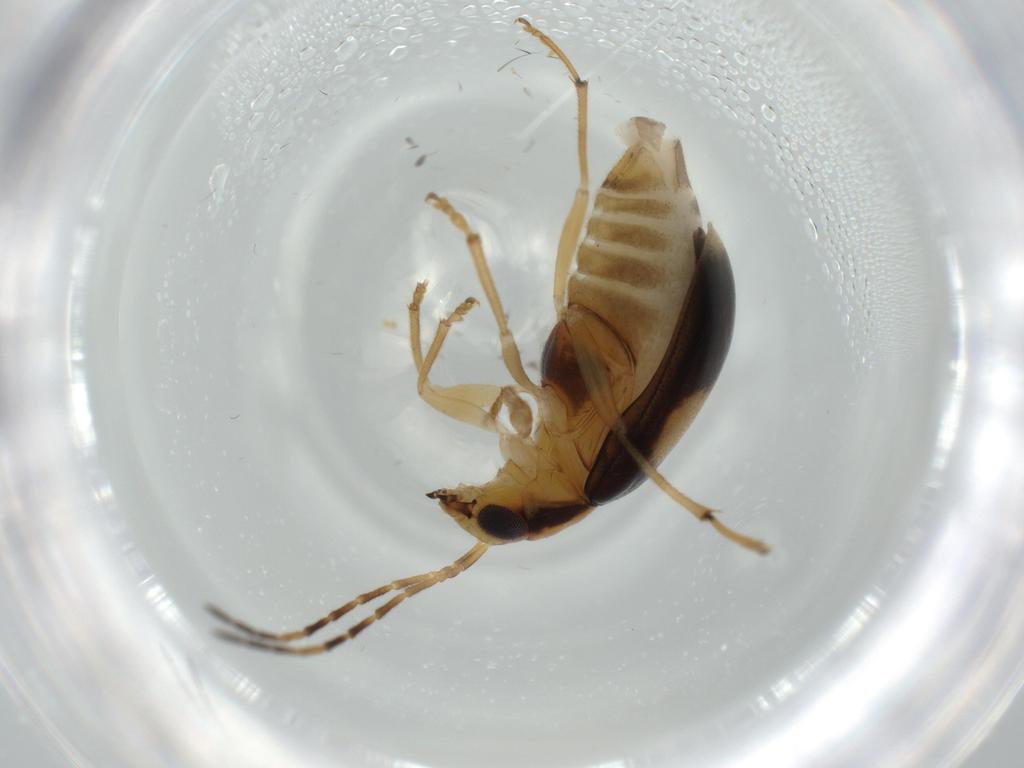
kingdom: Animalia
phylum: Arthropoda
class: Insecta
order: Coleoptera
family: Chrysomelidae
